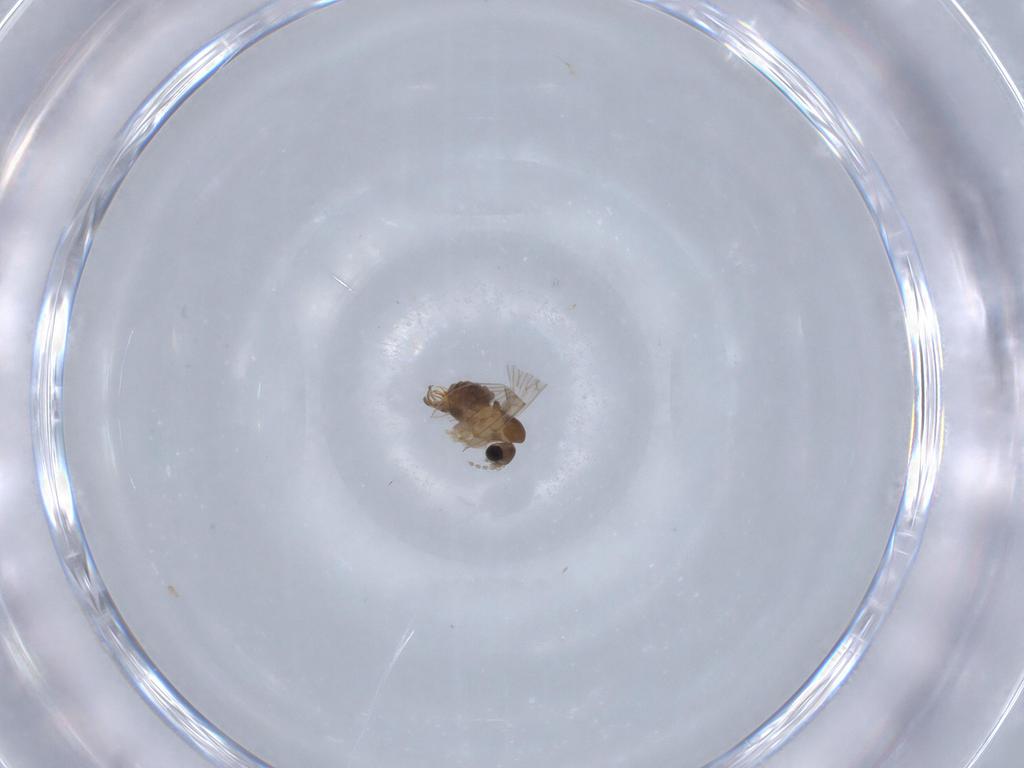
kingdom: Animalia
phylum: Arthropoda
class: Insecta
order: Diptera
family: Psychodidae
